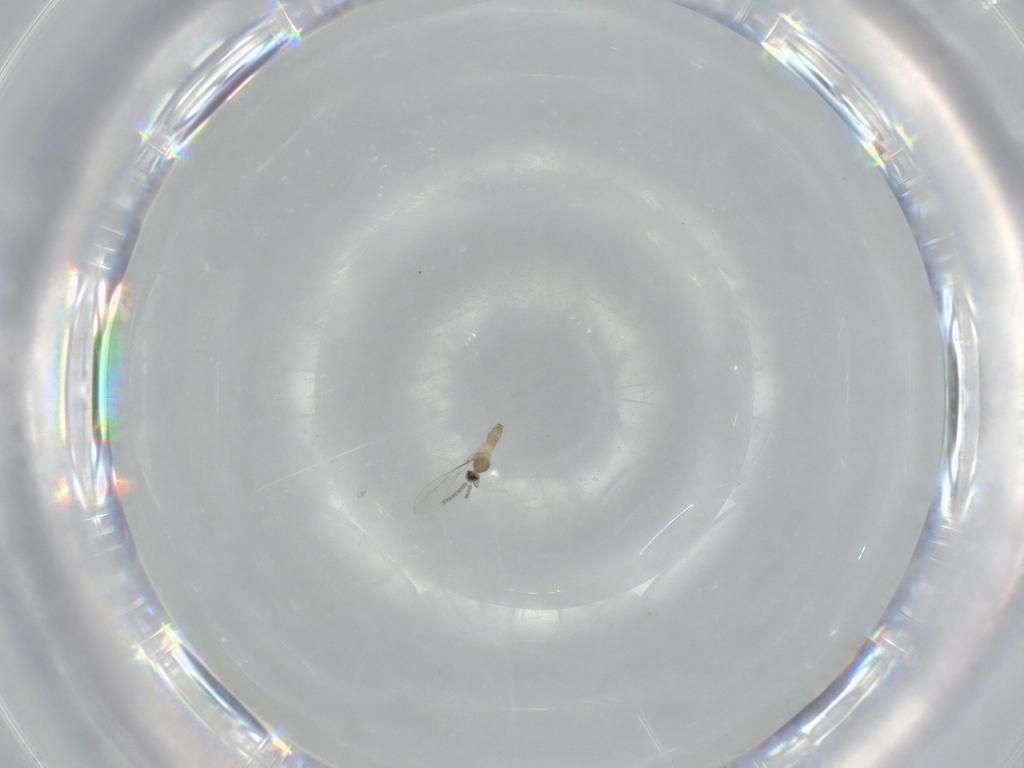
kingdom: Animalia
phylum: Arthropoda
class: Insecta
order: Diptera
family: Cecidomyiidae
